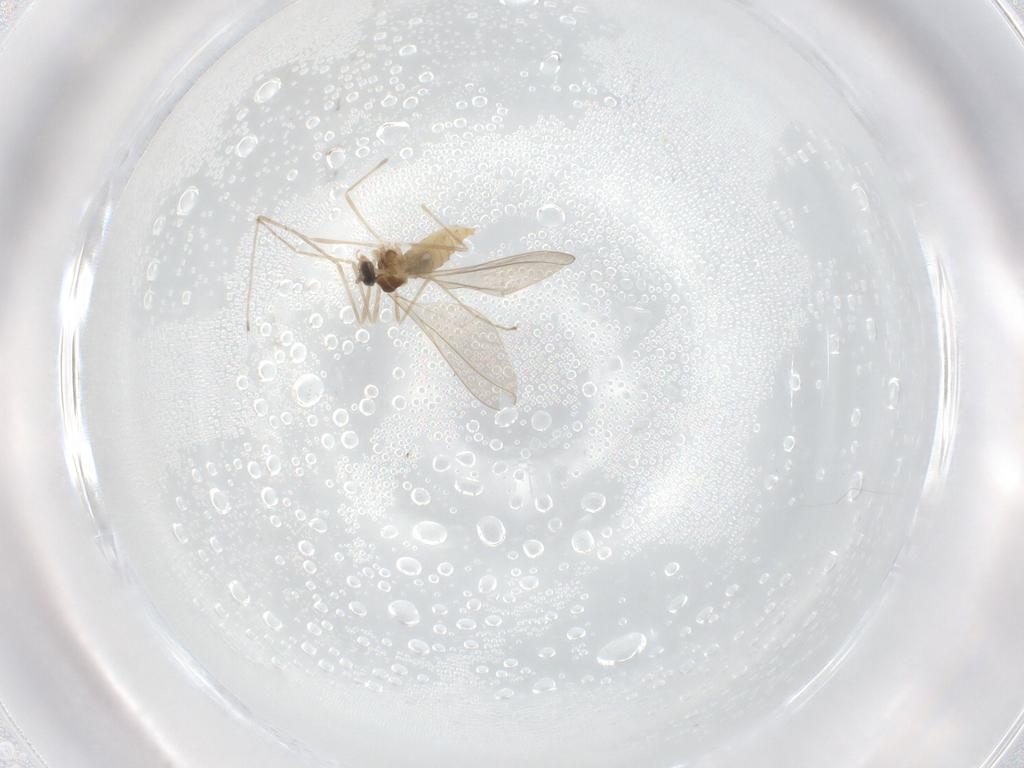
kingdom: Animalia
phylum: Arthropoda
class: Insecta
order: Diptera
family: Cecidomyiidae
